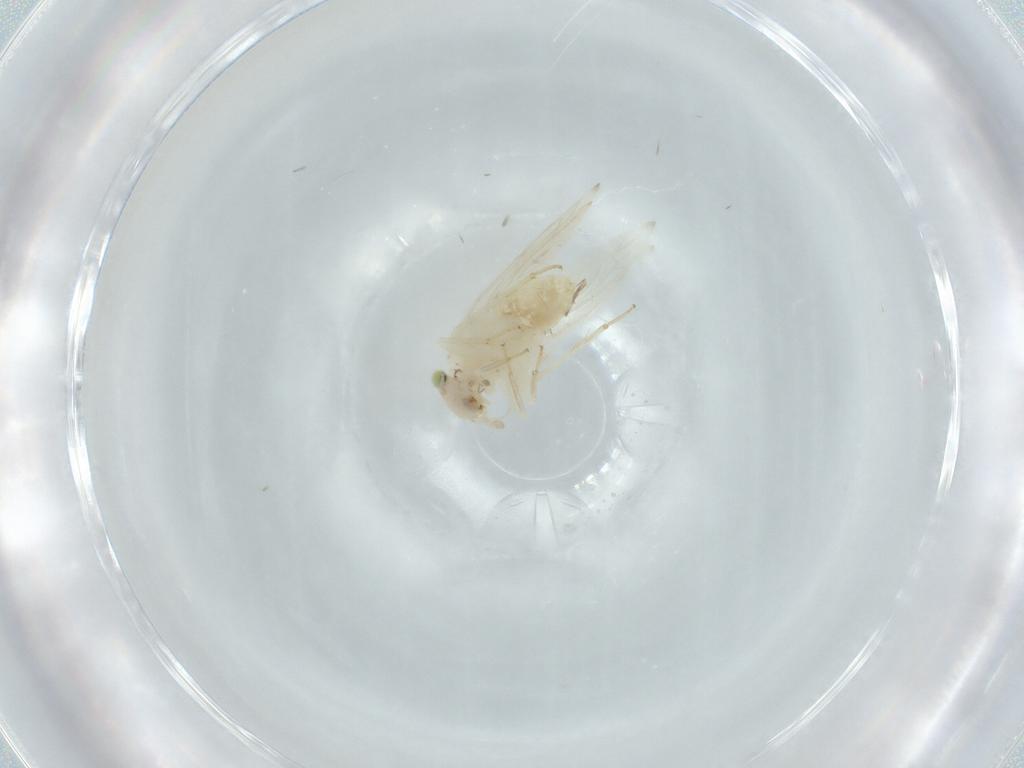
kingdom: Animalia
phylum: Arthropoda
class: Insecta
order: Psocodea
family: Lepidopsocidae
